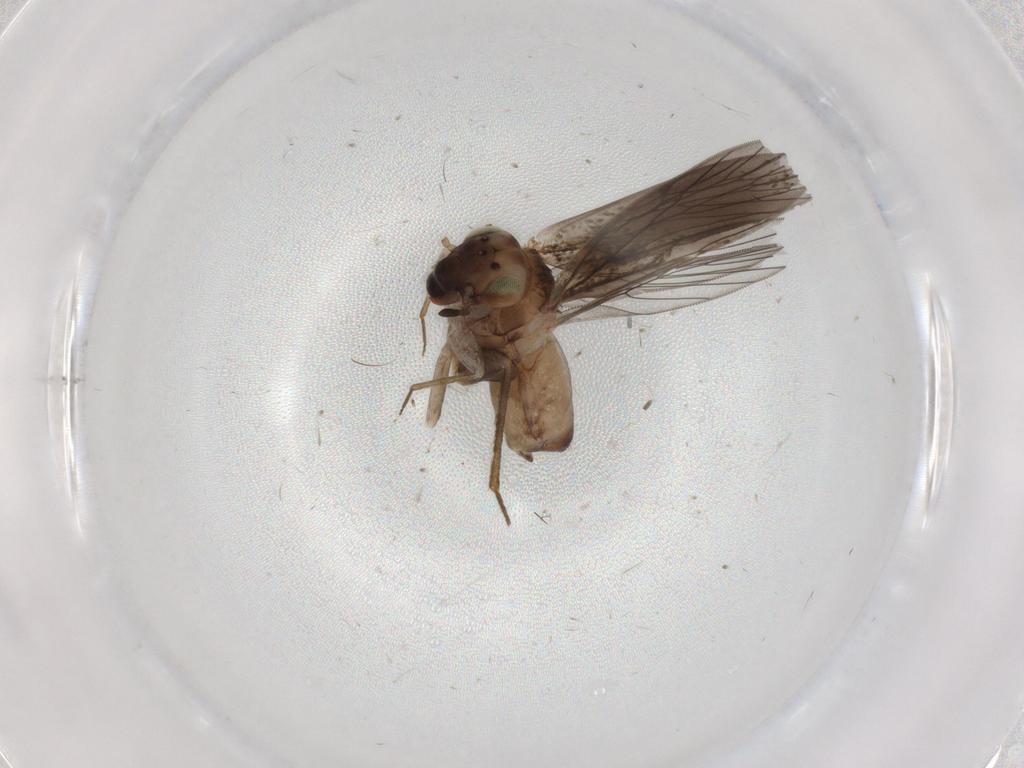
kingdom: Animalia
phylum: Arthropoda
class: Insecta
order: Psocodea
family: Lepidopsocidae
